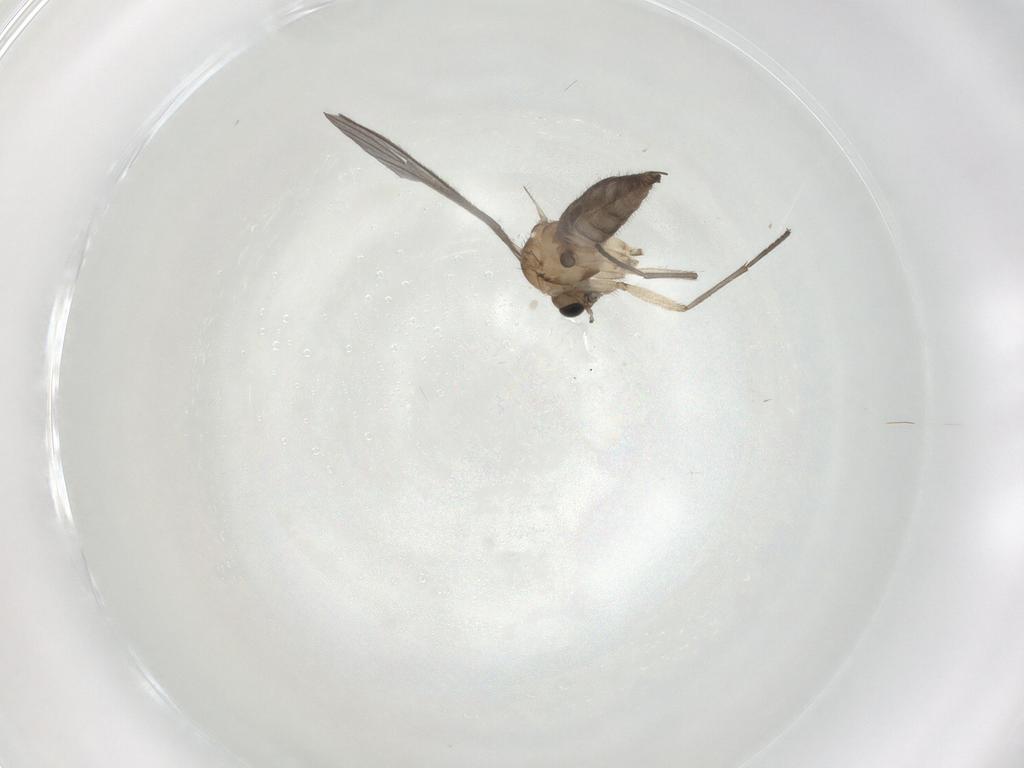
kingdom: Animalia
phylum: Arthropoda
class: Insecta
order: Diptera
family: Sciaridae
